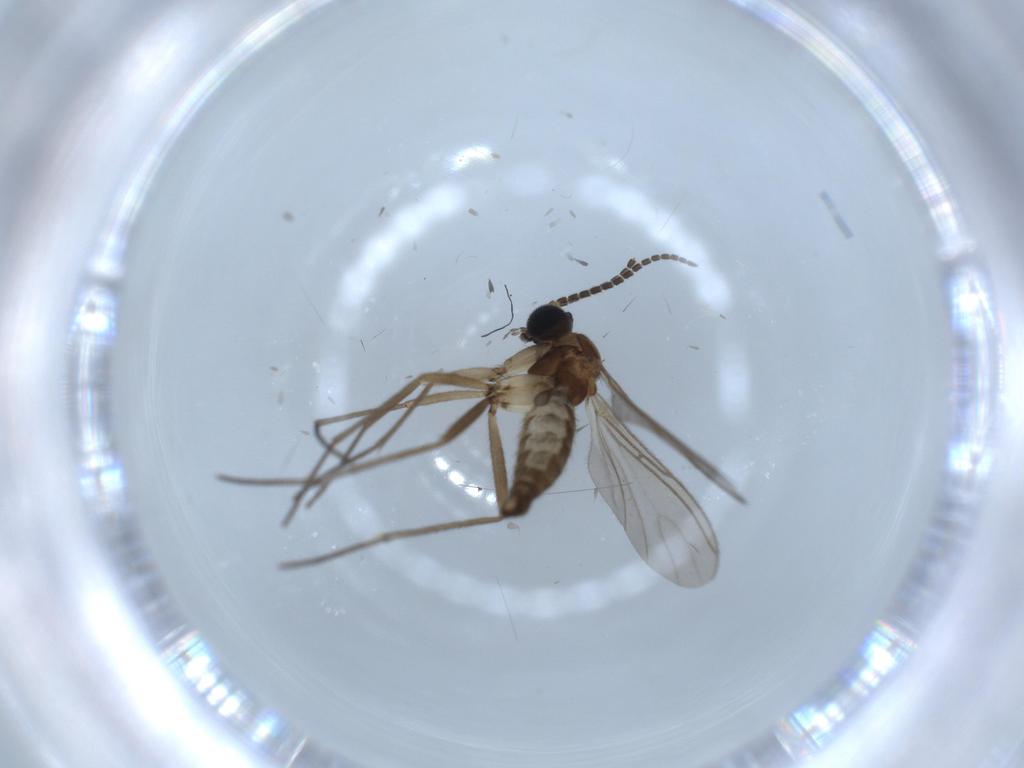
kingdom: Animalia
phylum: Arthropoda
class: Insecta
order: Diptera
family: Sciaridae
